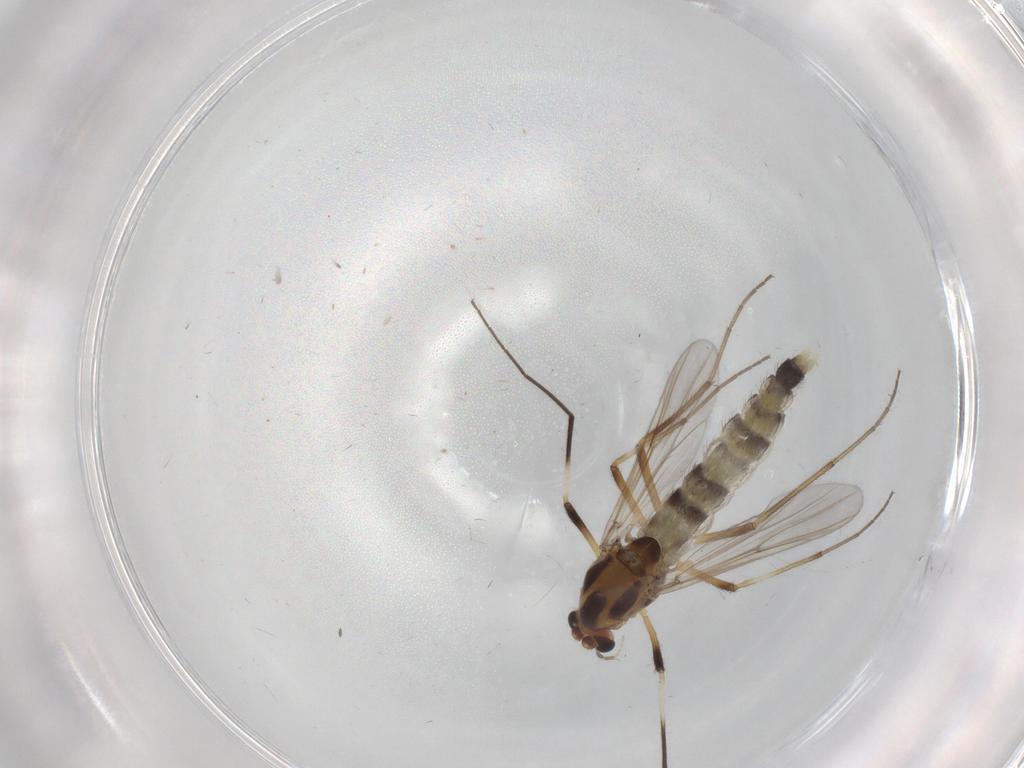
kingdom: Animalia
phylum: Arthropoda
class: Insecta
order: Diptera
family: Chironomidae
